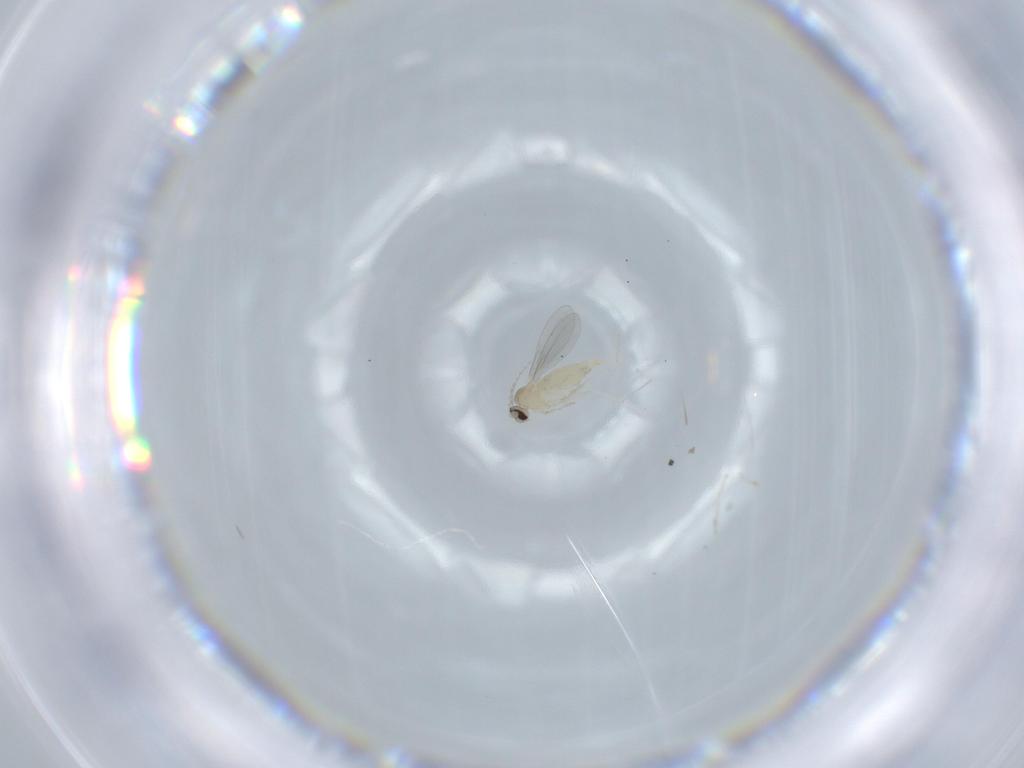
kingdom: Animalia
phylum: Arthropoda
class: Insecta
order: Diptera
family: Cecidomyiidae
